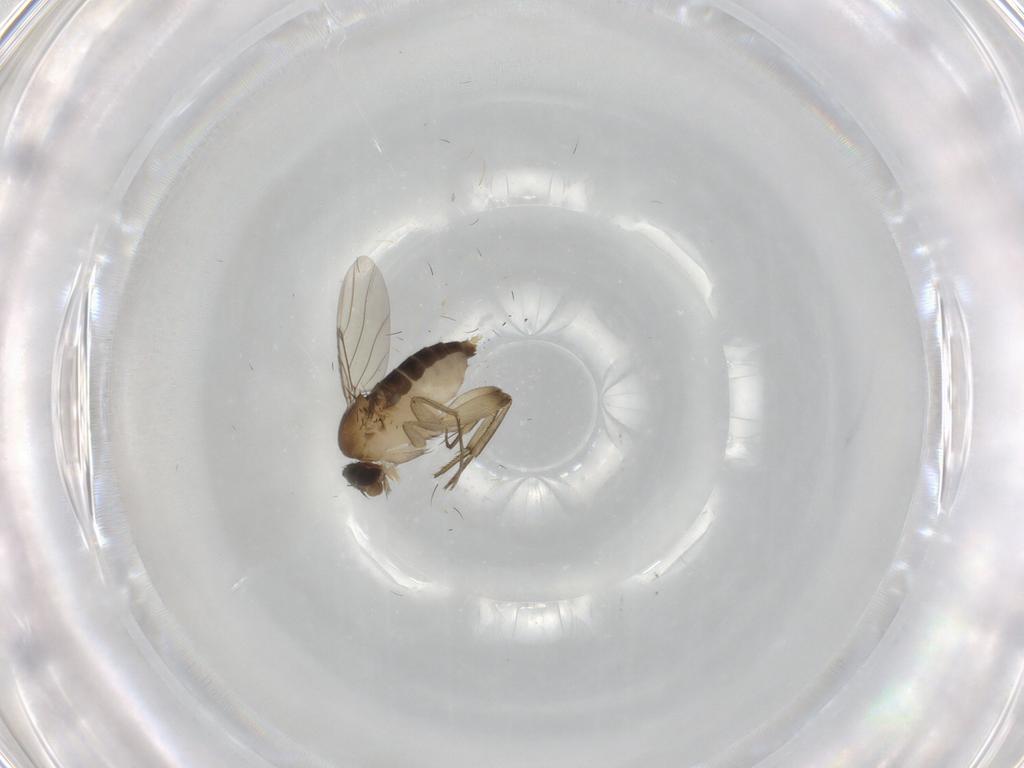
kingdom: Animalia
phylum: Arthropoda
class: Insecta
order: Diptera
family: Phoridae
